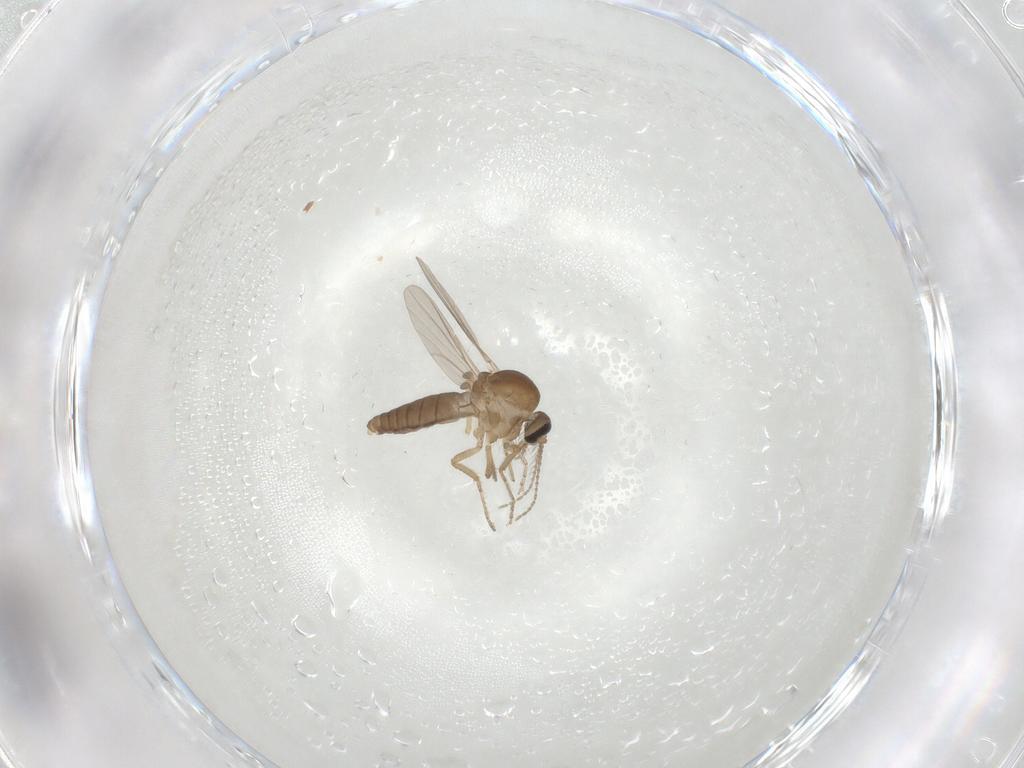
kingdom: Animalia
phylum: Arthropoda
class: Insecta
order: Diptera
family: Ceratopogonidae
